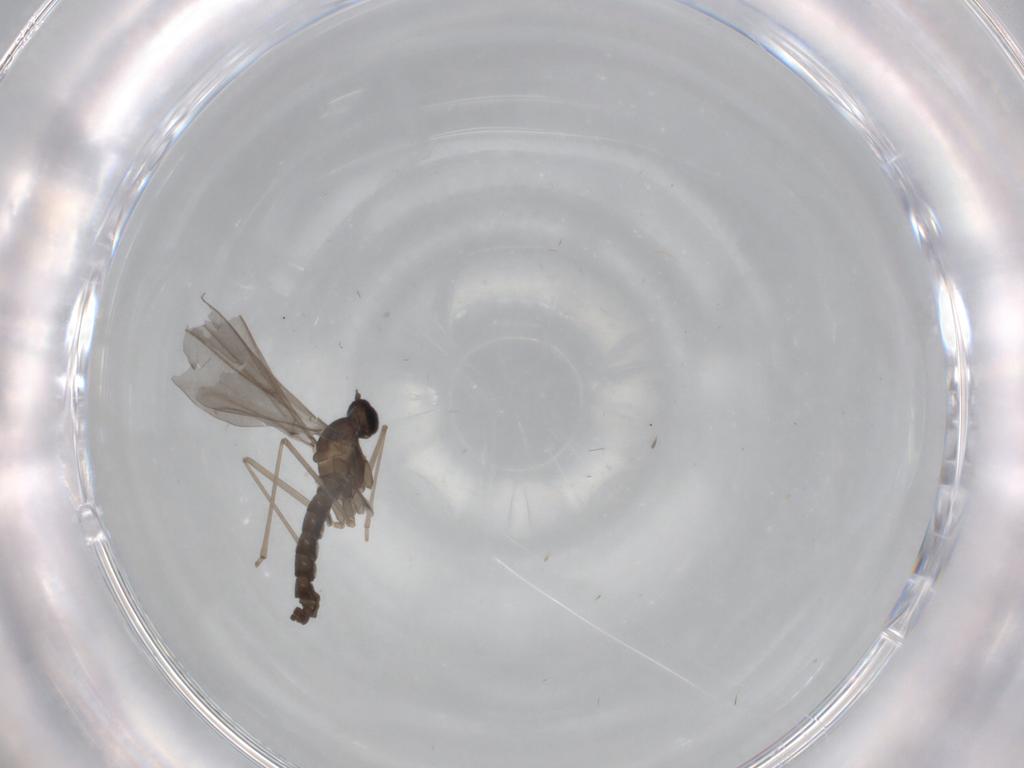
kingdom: Animalia
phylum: Arthropoda
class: Insecta
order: Diptera
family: Cecidomyiidae
